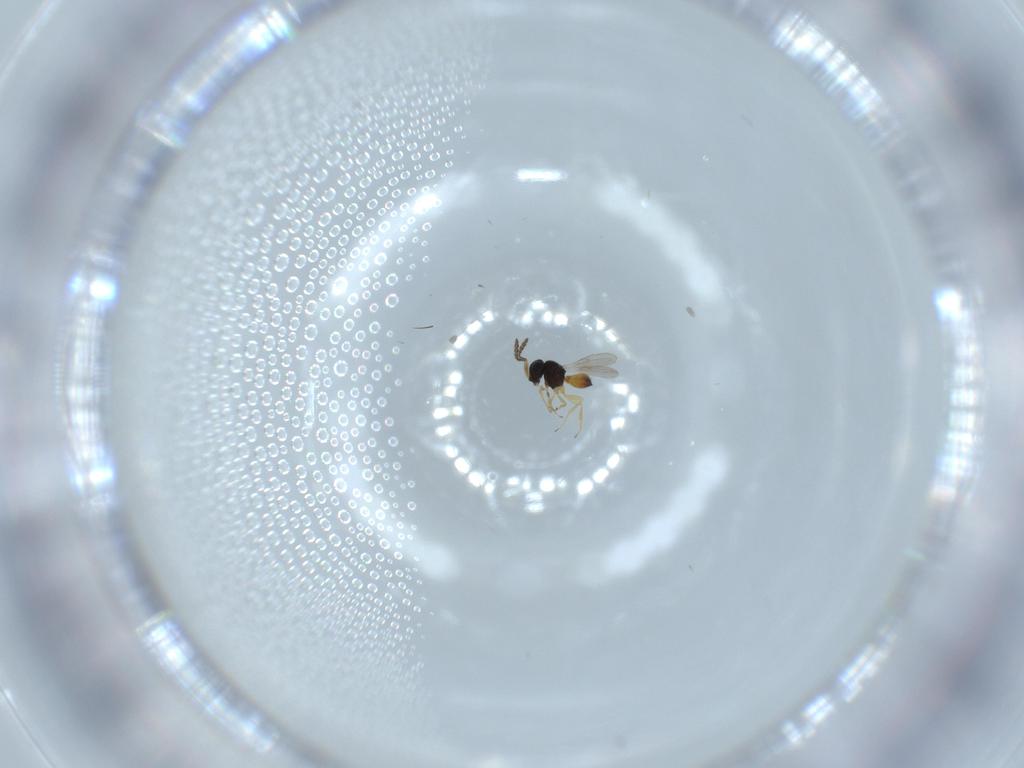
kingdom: Animalia
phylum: Arthropoda
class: Insecta
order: Hymenoptera
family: Scelionidae
